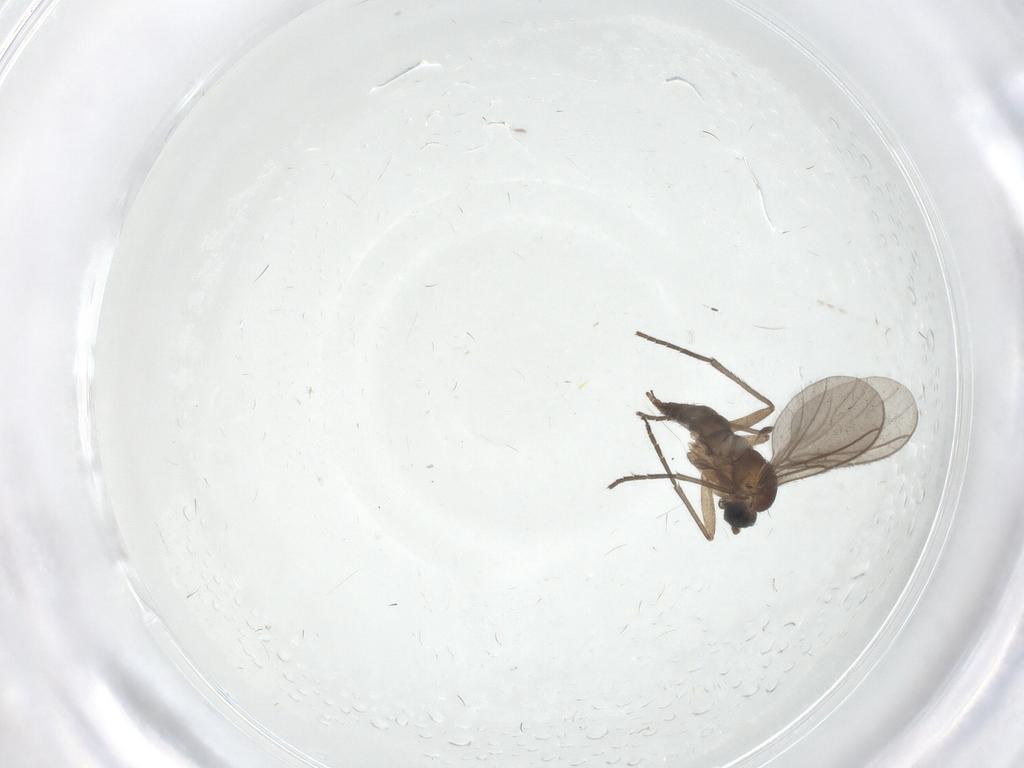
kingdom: Animalia
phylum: Arthropoda
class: Insecta
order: Diptera
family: Sciaridae
